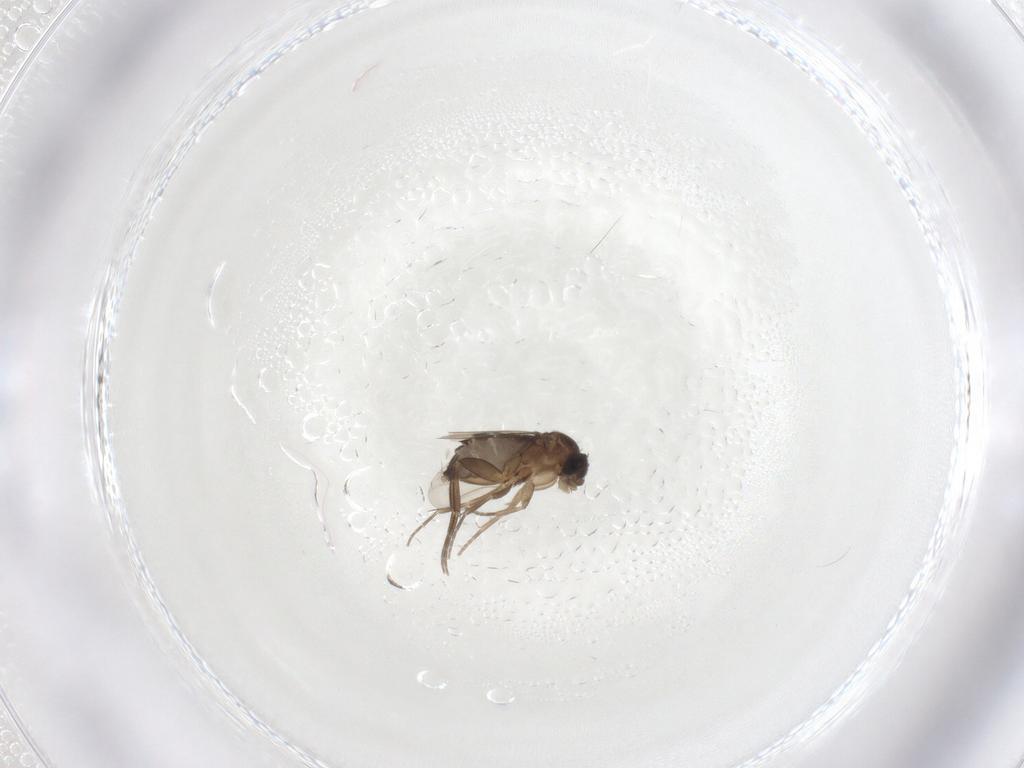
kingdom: Animalia
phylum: Arthropoda
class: Insecta
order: Diptera
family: Phoridae
